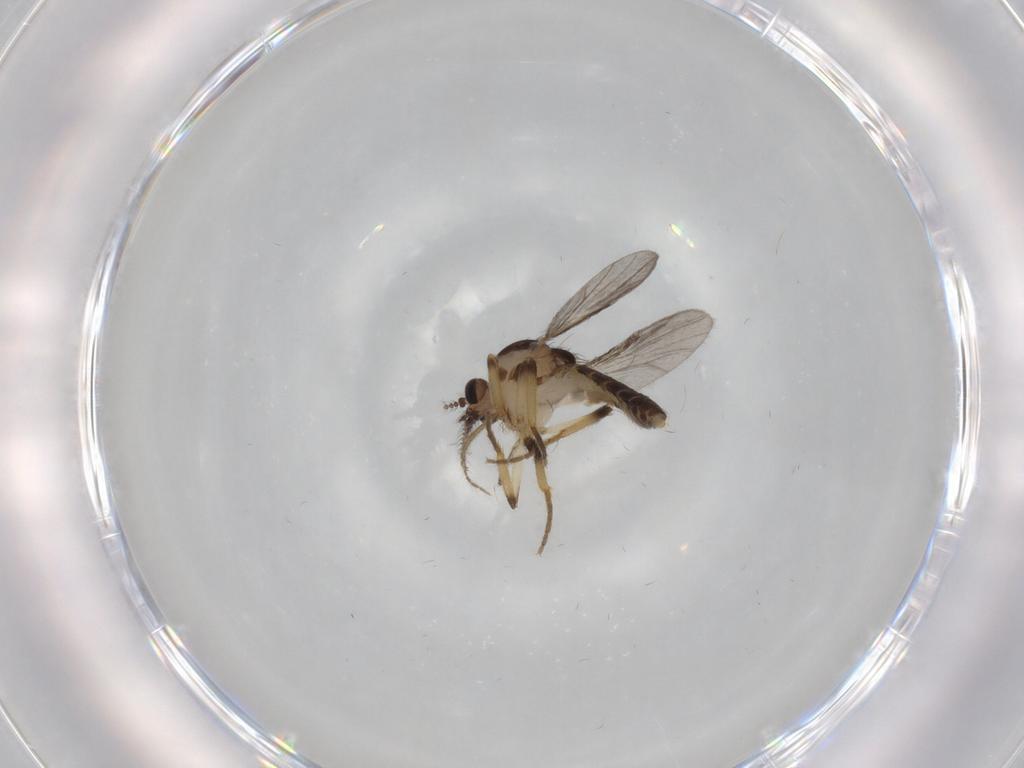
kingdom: Animalia
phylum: Arthropoda
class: Insecta
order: Diptera
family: Ceratopogonidae
